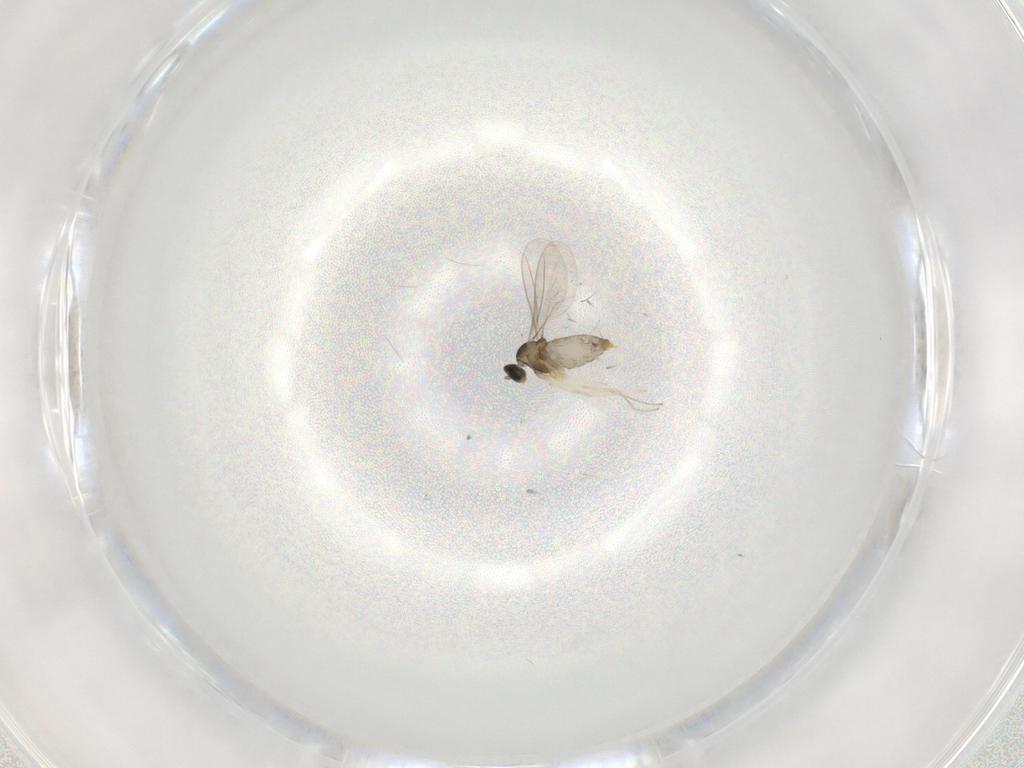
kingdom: Animalia
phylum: Arthropoda
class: Insecta
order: Diptera
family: Cecidomyiidae
